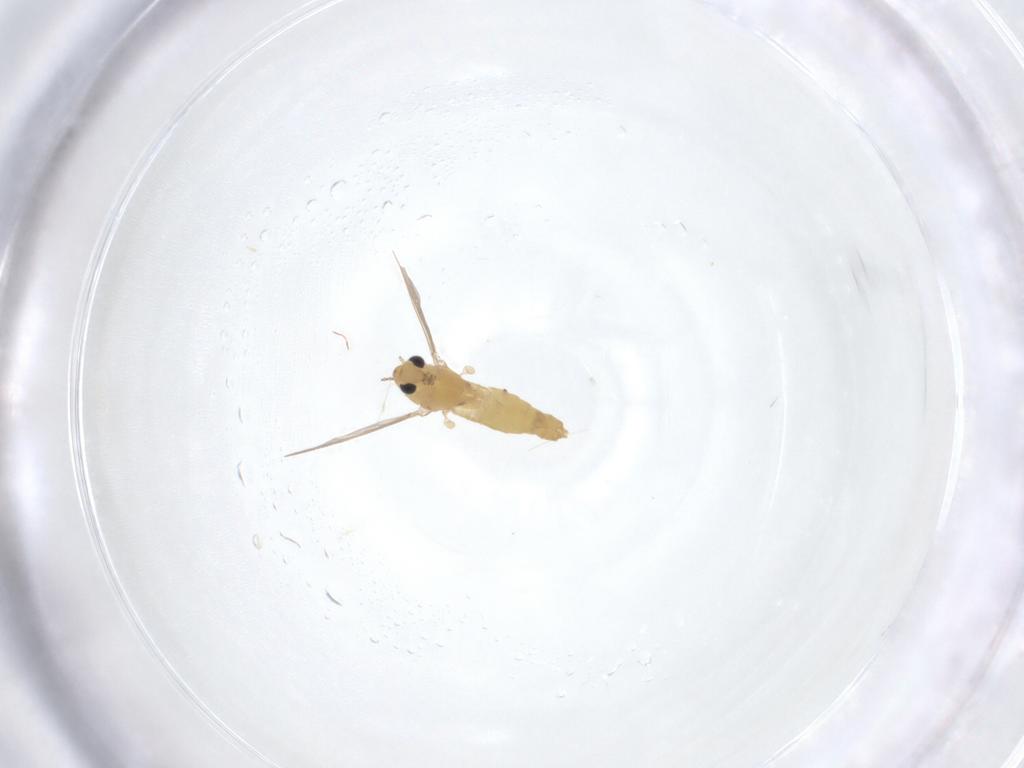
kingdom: Animalia
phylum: Arthropoda
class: Insecta
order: Diptera
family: Chironomidae
